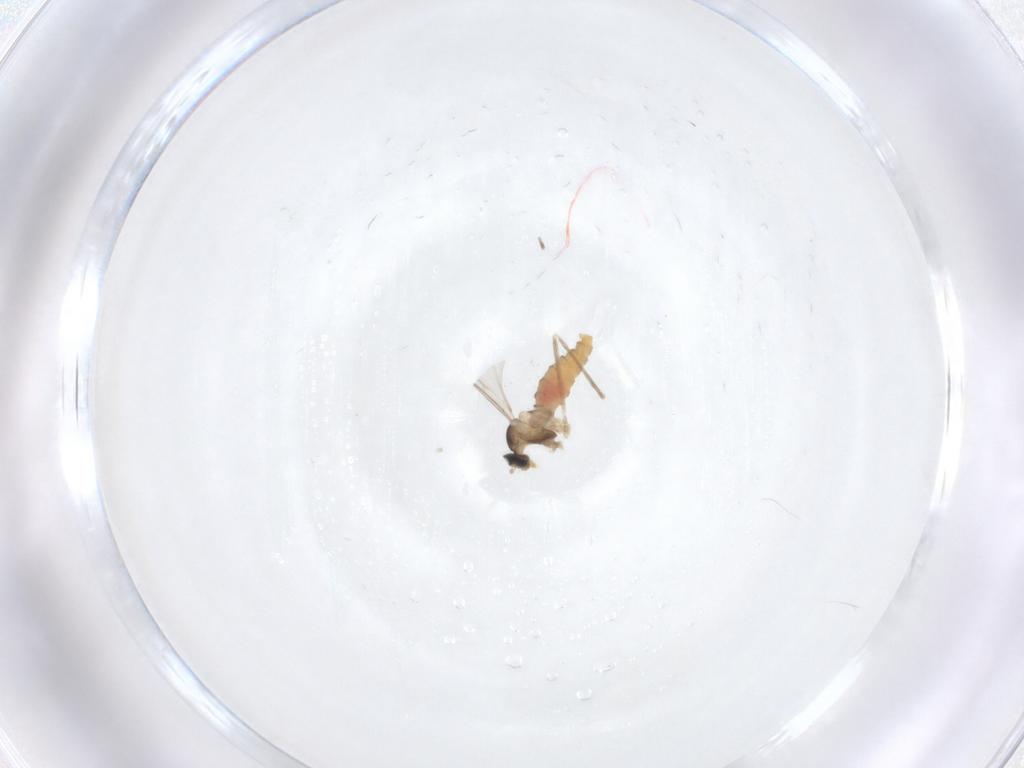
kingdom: Animalia
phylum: Arthropoda
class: Insecta
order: Diptera
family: Cecidomyiidae
